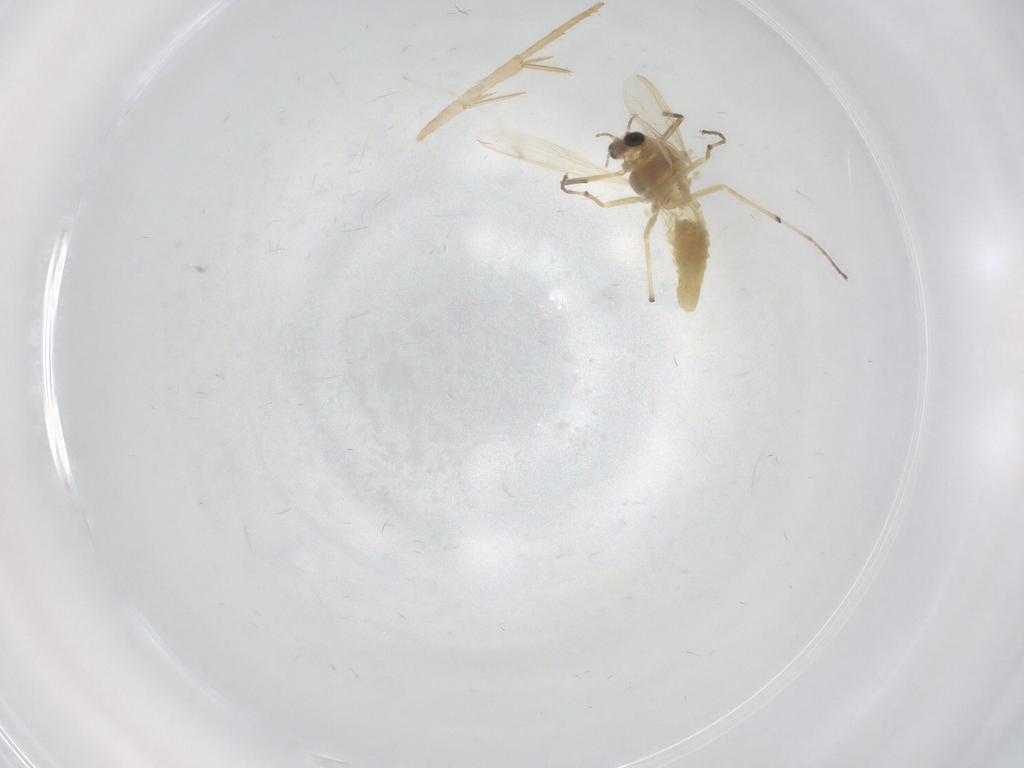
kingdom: Animalia
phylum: Arthropoda
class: Insecta
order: Diptera
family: Chironomidae
